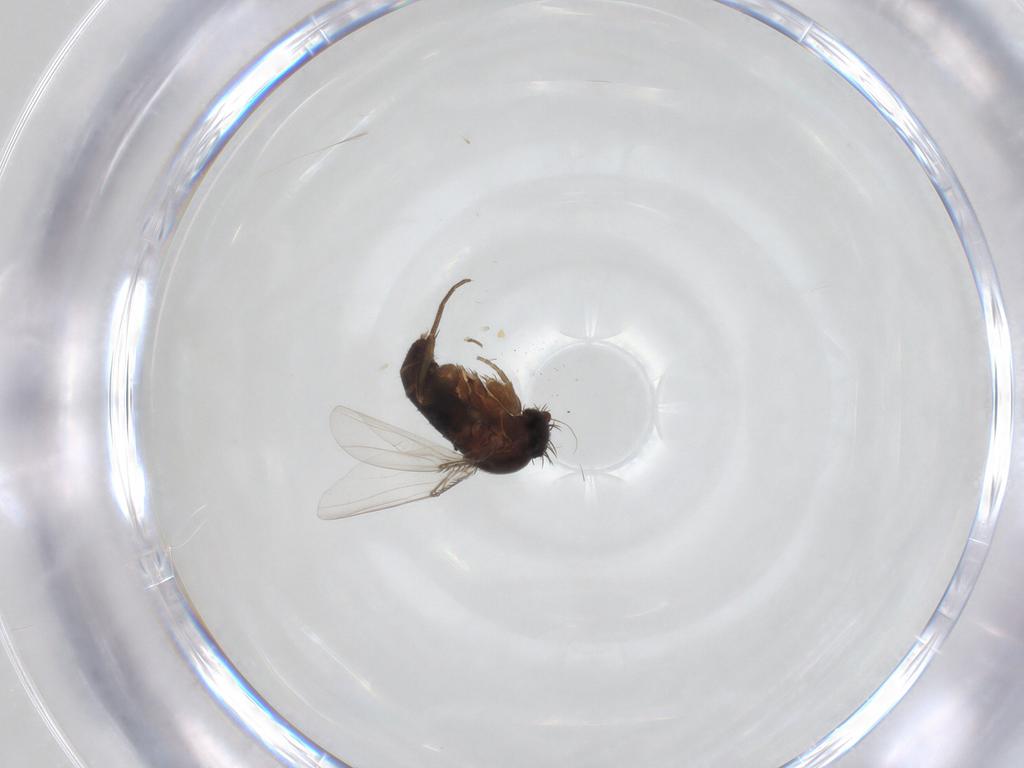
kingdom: Animalia
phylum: Arthropoda
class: Insecta
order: Diptera
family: Phoridae
